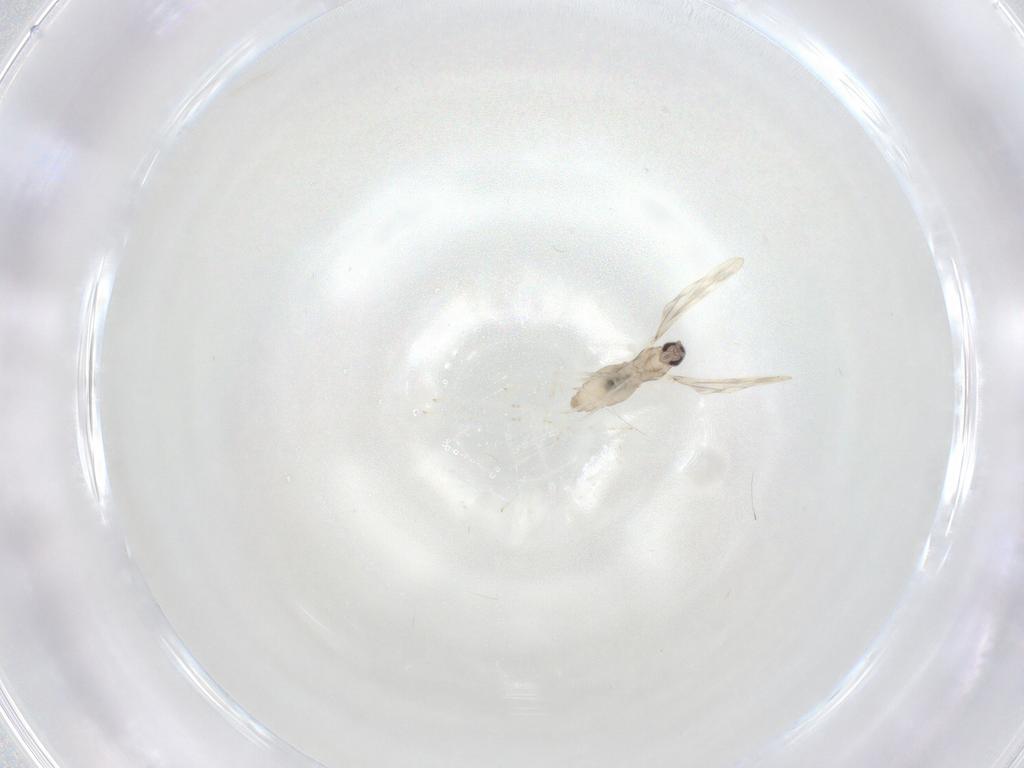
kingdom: Animalia
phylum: Arthropoda
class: Insecta
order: Diptera
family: Cecidomyiidae
